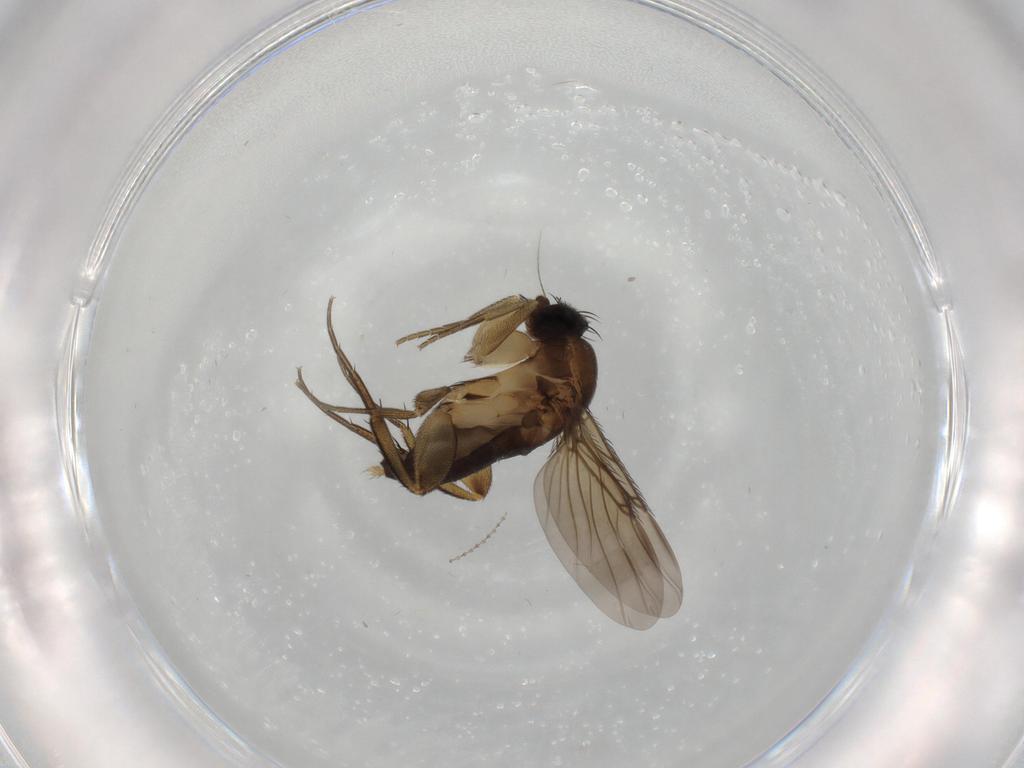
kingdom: Animalia
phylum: Arthropoda
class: Insecta
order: Diptera
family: Phoridae
